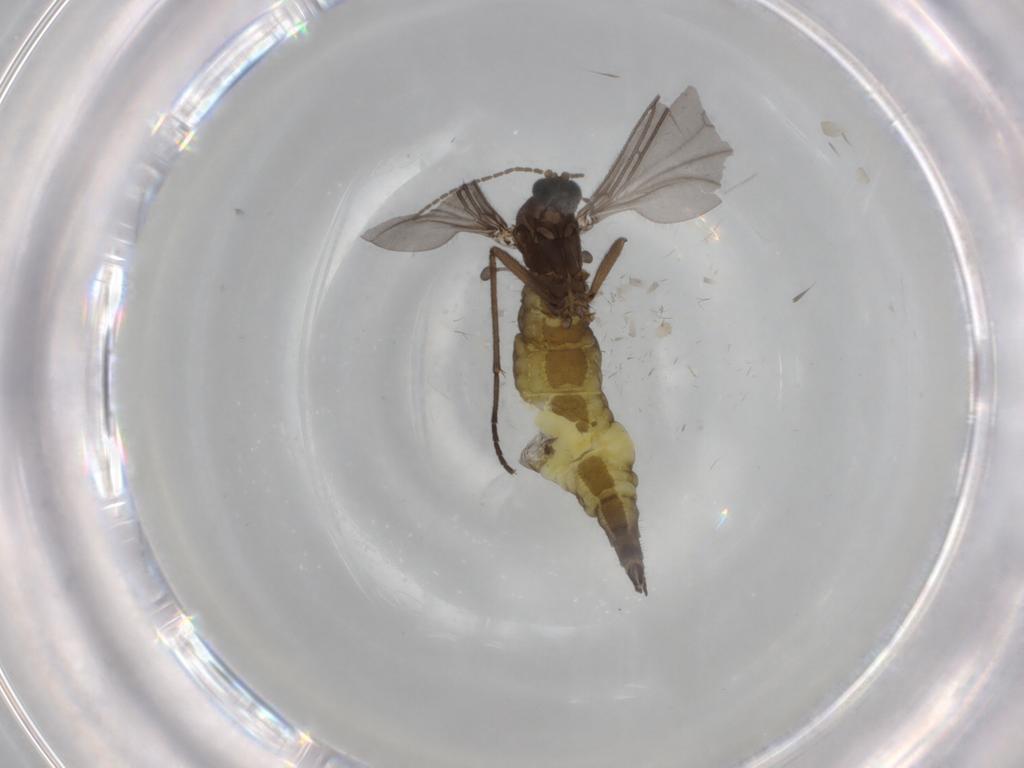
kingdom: Animalia
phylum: Arthropoda
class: Insecta
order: Diptera
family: Sciaridae
